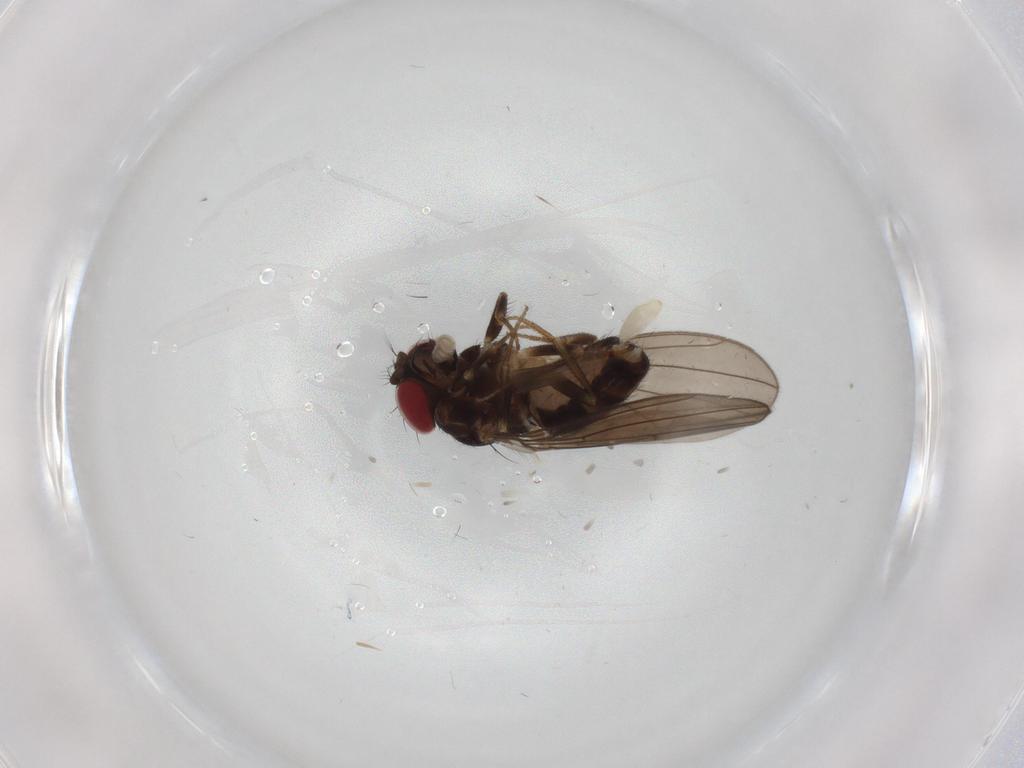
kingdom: Animalia
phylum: Arthropoda
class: Insecta
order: Diptera
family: Drosophilidae
